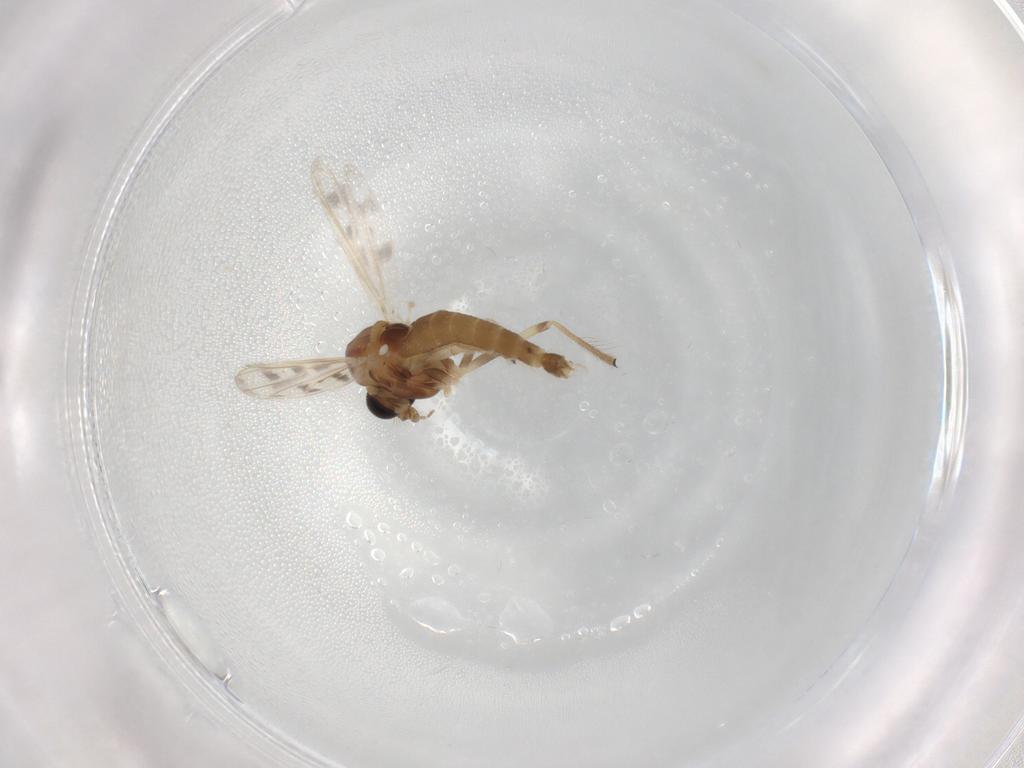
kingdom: Animalia
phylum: Arthropoda
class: Insecta
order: Diptera
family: Chironomidae
